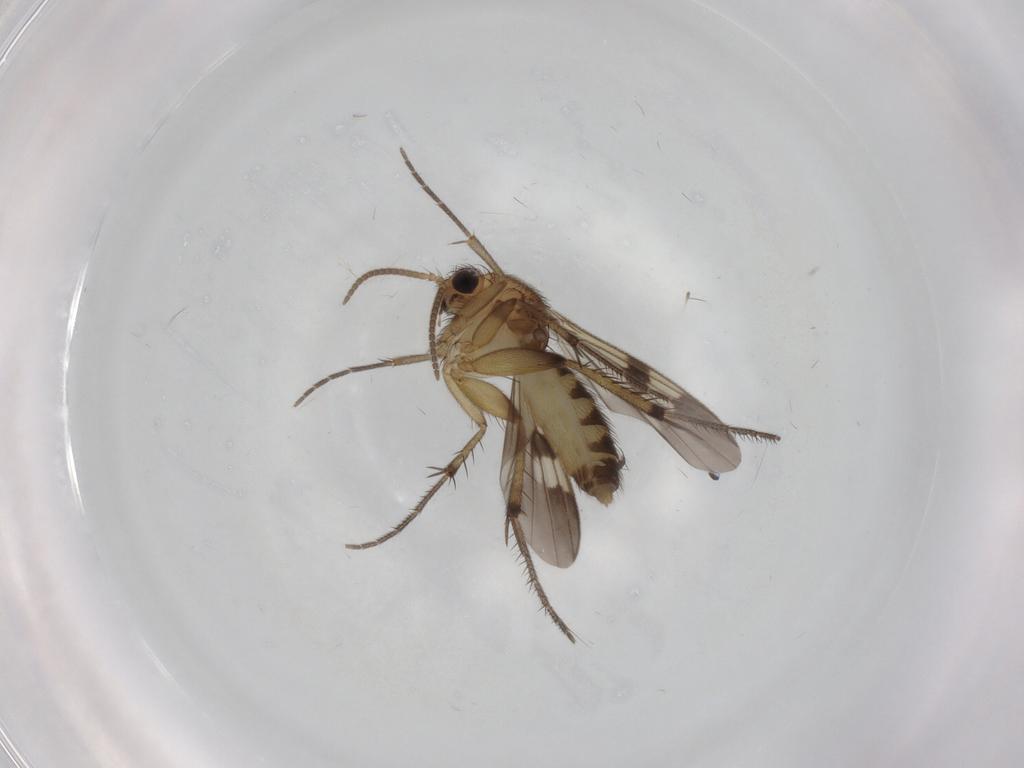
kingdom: Animalia
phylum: Arthropoda
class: Insecta
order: Diptera
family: Mycetophilidae
